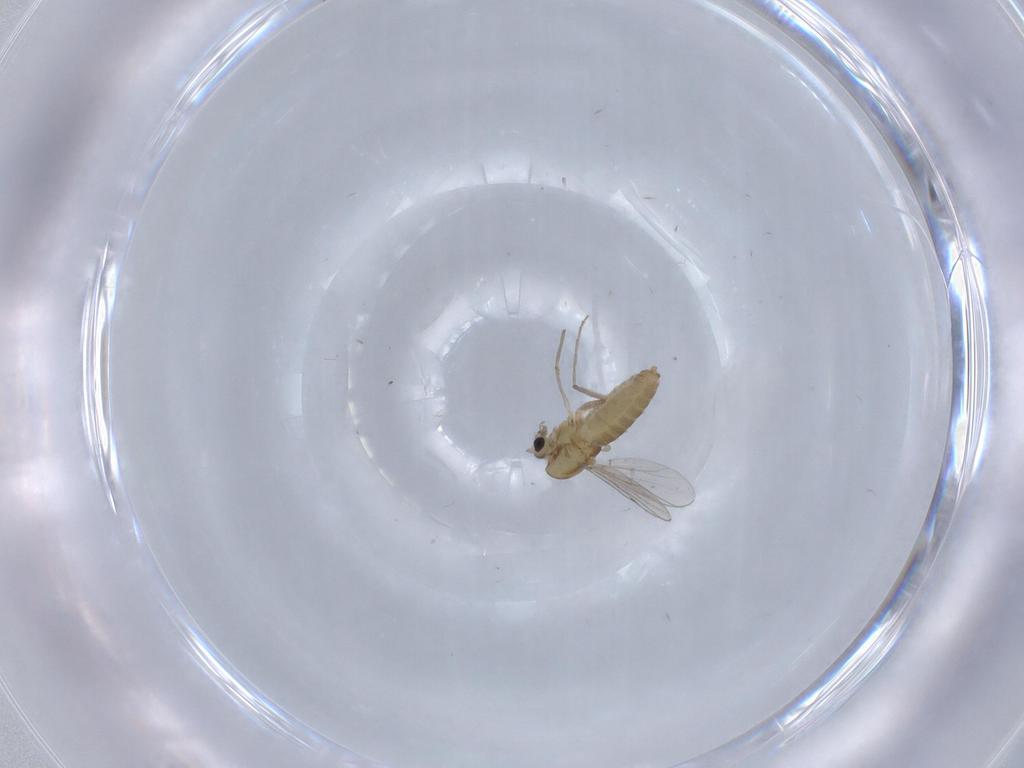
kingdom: Animalia
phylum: Arthropoda
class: Insecta
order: Diptera
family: Chironomidae
